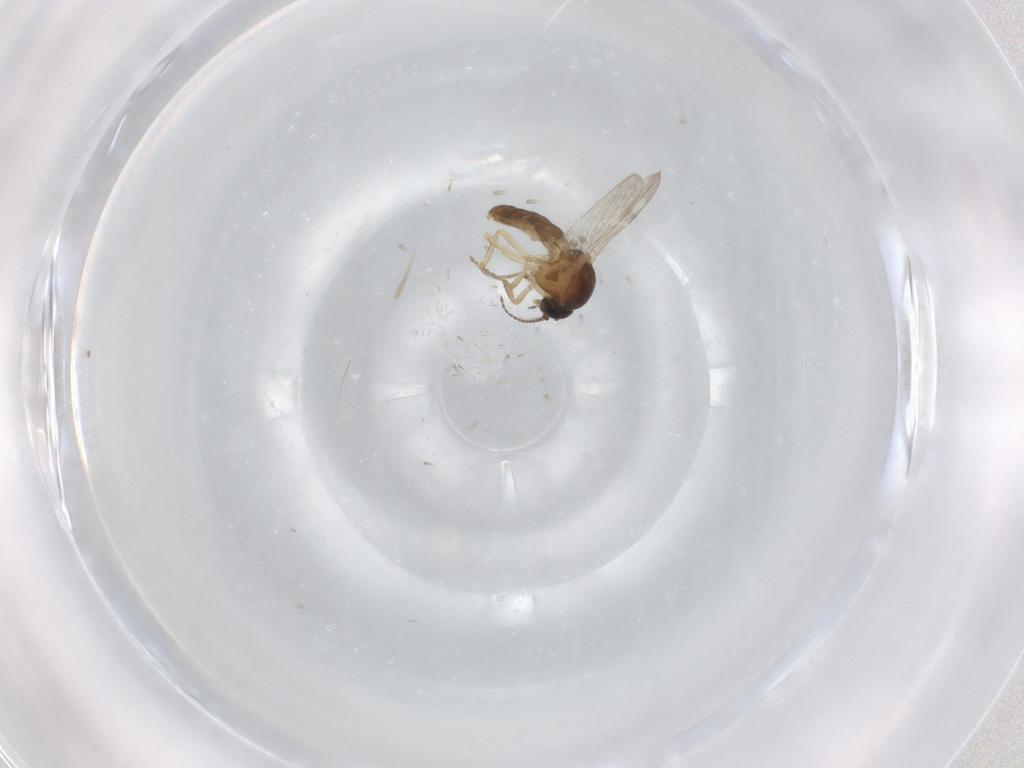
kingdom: Animalia
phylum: Arthropoda
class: Insecta
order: Diptera
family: Ceratopogonidae
